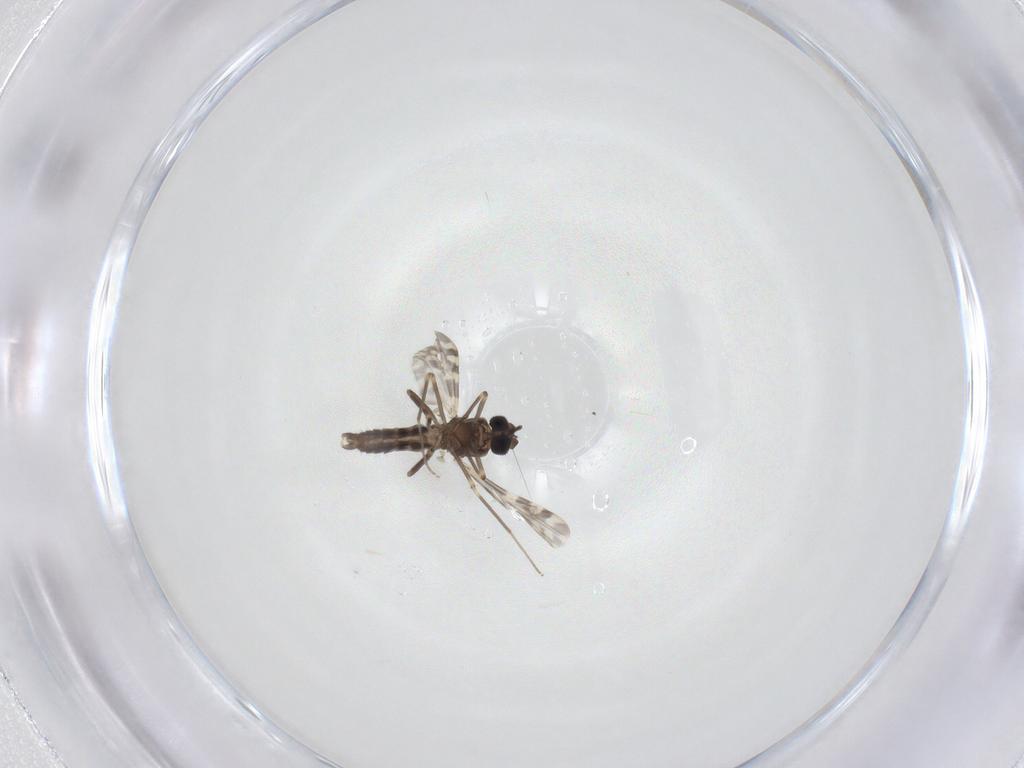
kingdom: Animalia
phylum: Arthropoda
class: Insecta
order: Diptera
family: Ceratopogonidae
